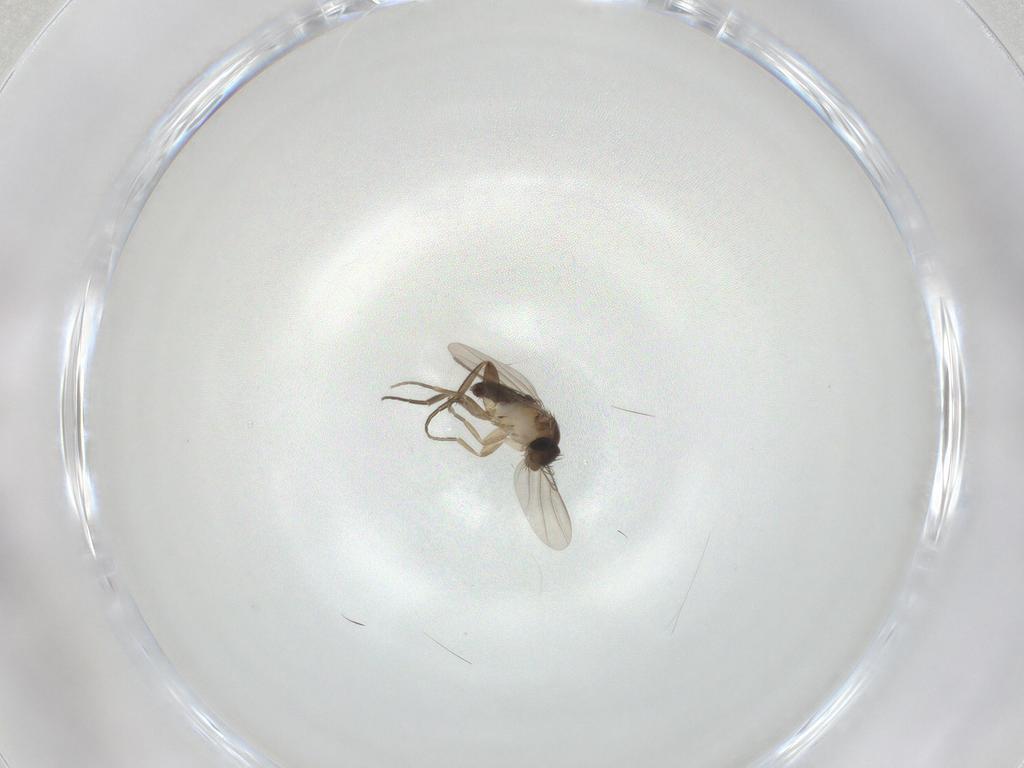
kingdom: Animalia
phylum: Arthropoda
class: Insecta
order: Diptera
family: Phoridae
